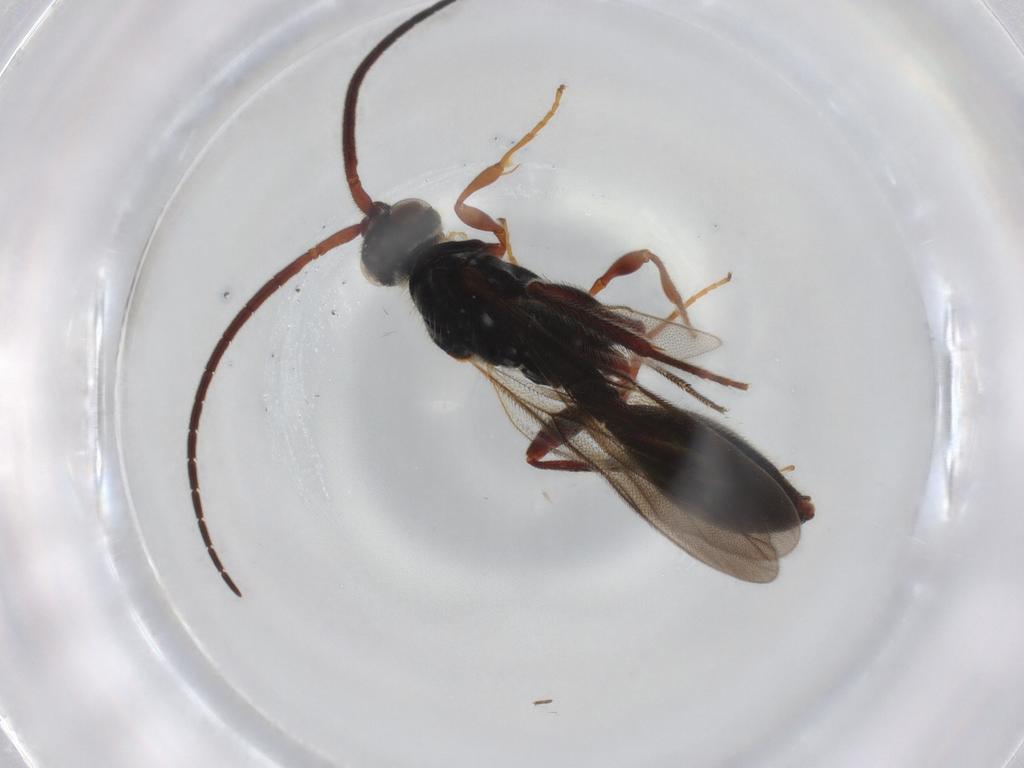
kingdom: Animalia
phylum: Arthropoda
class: Insecta
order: Hymenoptera
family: Diapriidae
